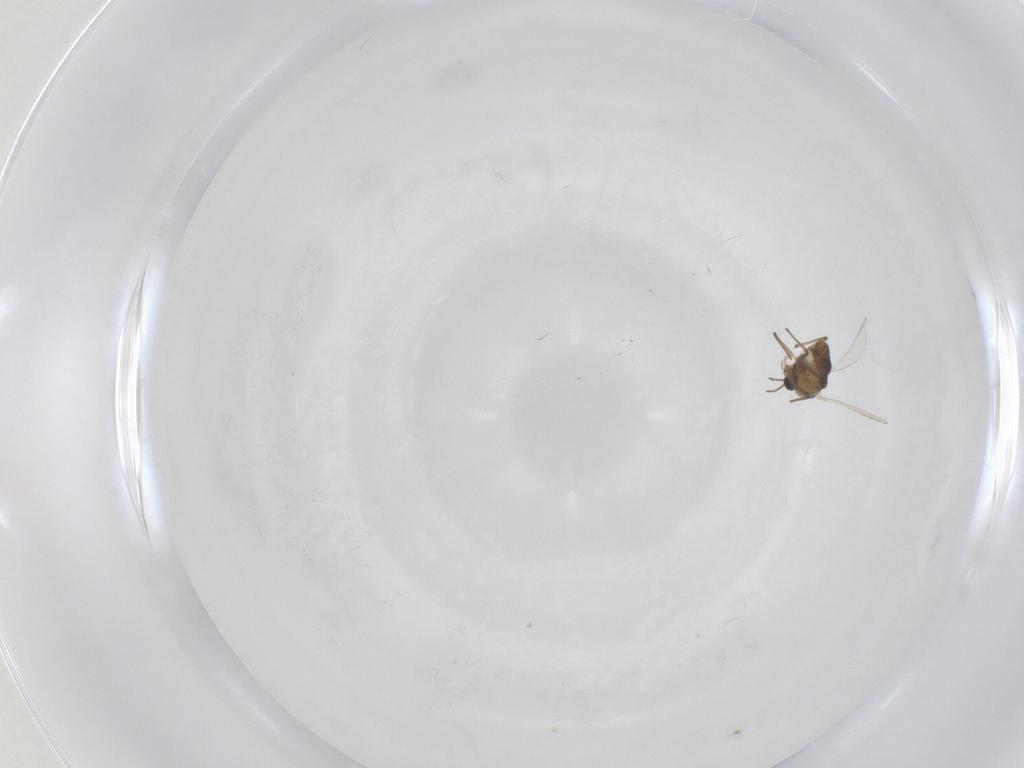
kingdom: Animalia
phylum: Arthropoda
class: Insecta
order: Diptera
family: Chironomidae
